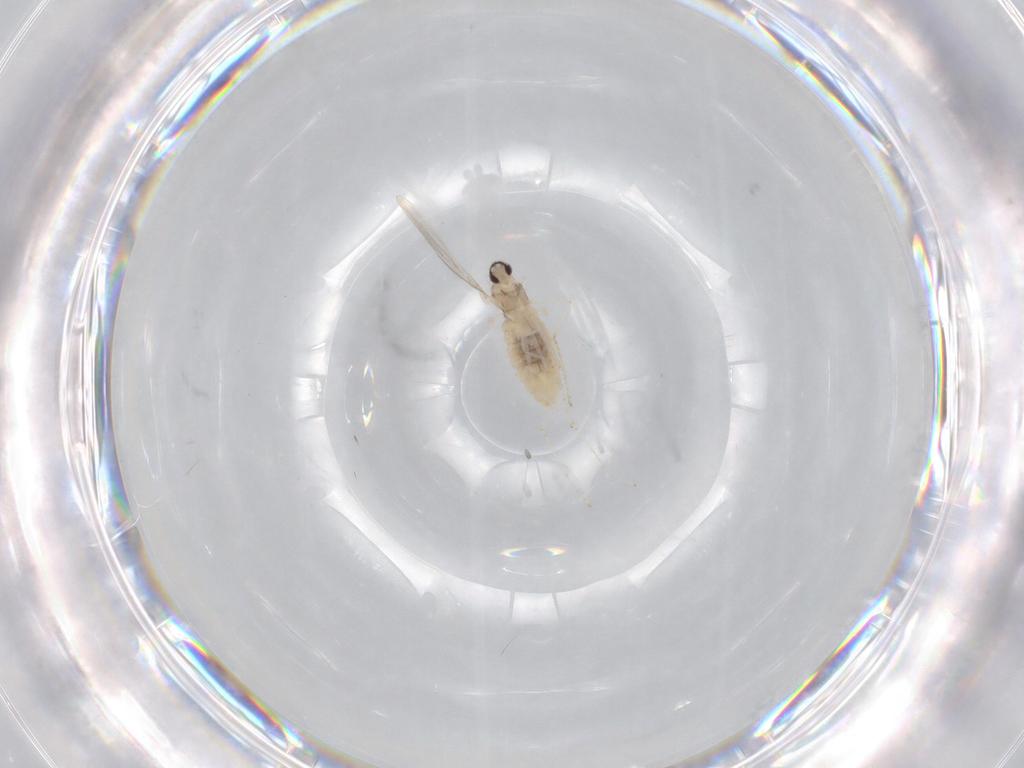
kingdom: Animalia
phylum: Arthropoda
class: Insecta
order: Diptera
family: Cecidomyiidae
